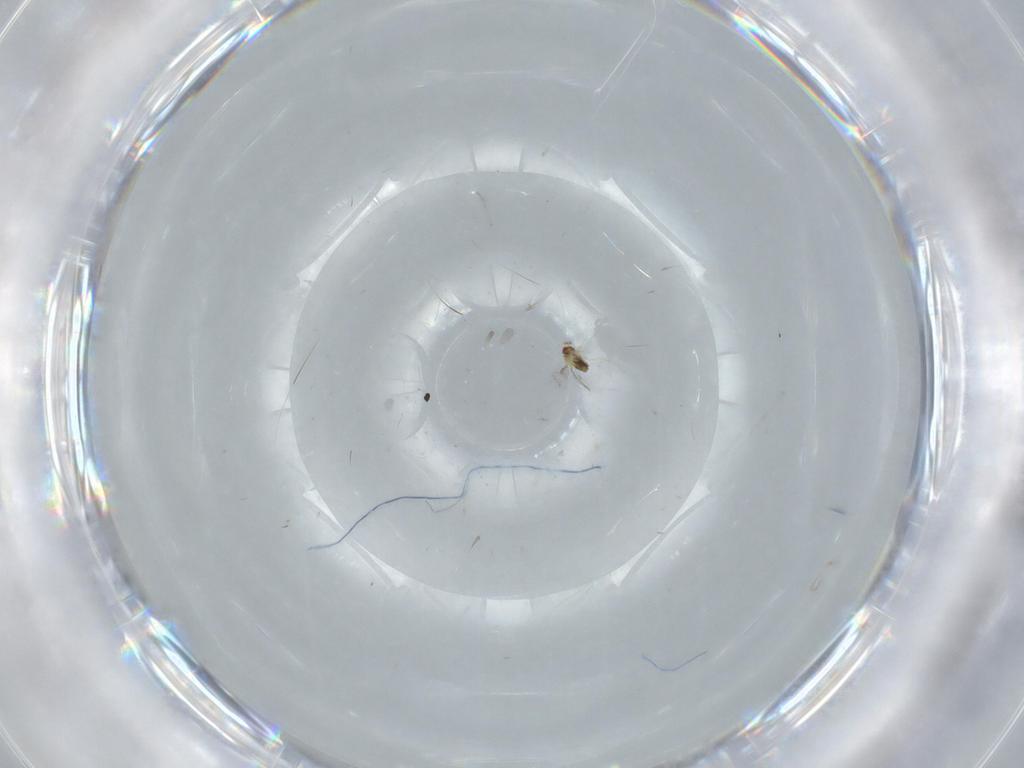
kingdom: Animalia
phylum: Arthropoda
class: Insecta
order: Hymenoptera
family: Trichogrammatidae
